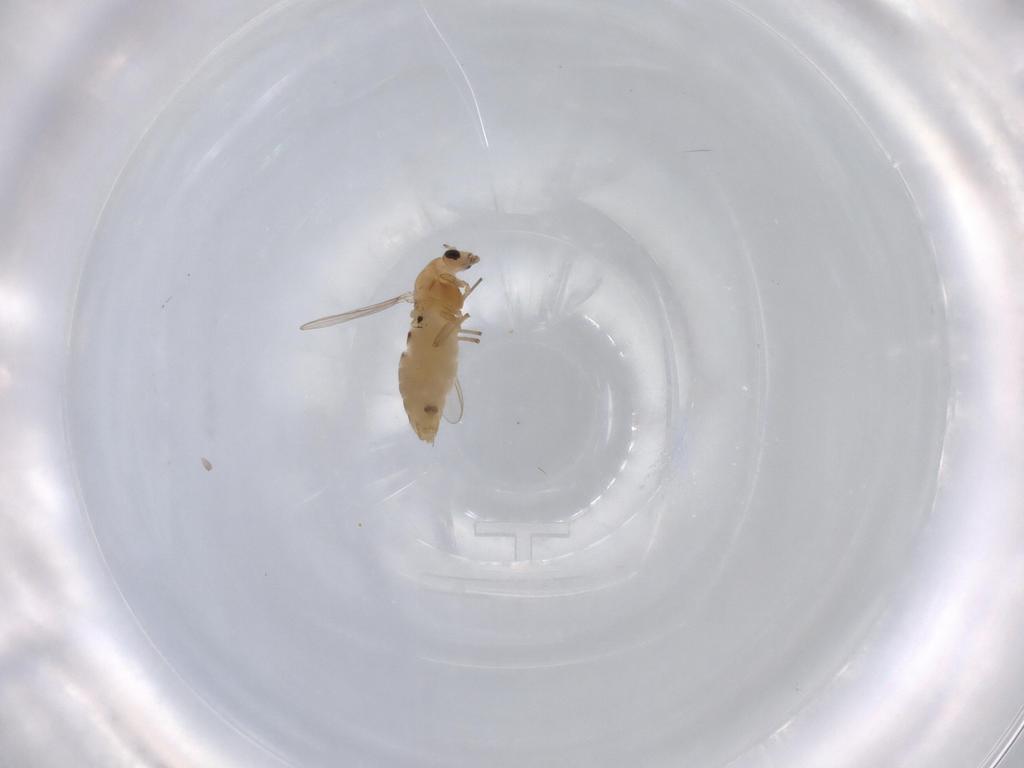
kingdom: Animalia
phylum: Arthropoda
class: Insecta
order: Diptera
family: Chironomidae
